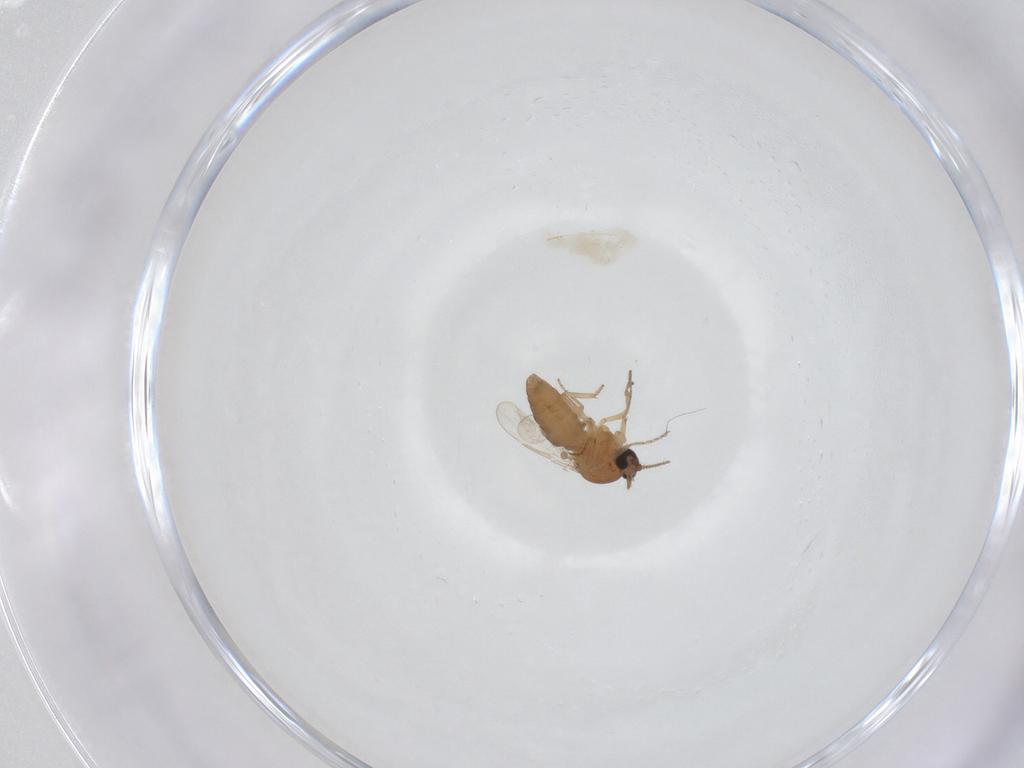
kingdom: Animalia
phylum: Arthropoda
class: Insecta
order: Diptera
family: Ceratopogonidae
